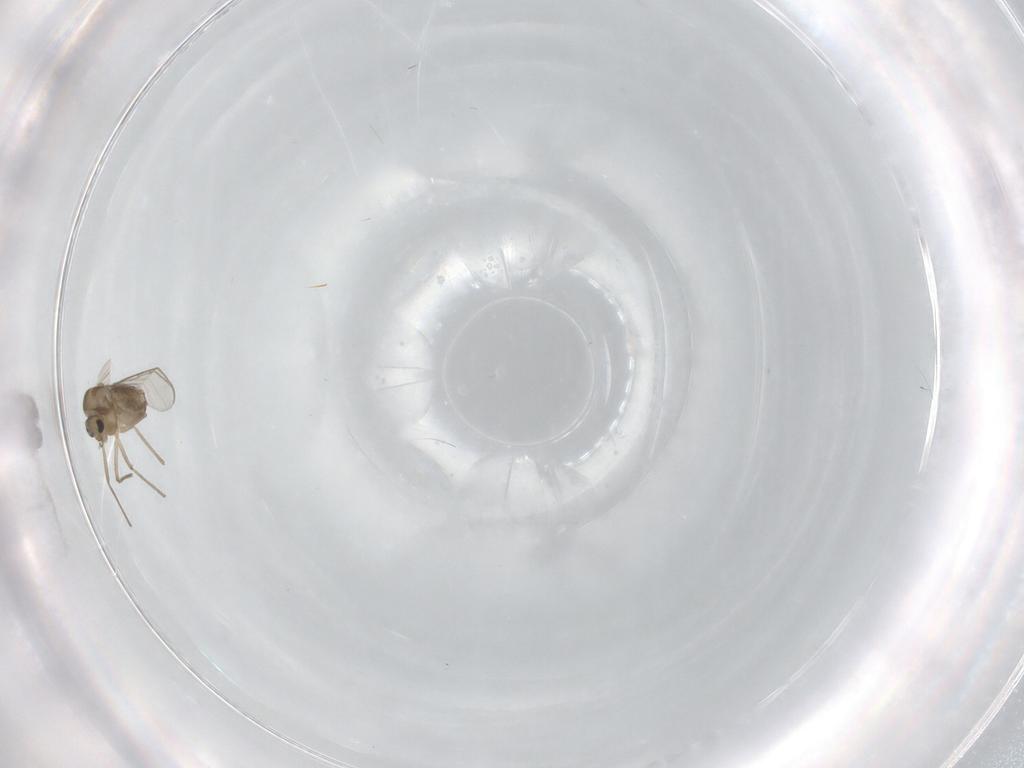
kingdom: Animalia
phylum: Arthropoda
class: Insecta
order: Diptera
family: Chironomidae
